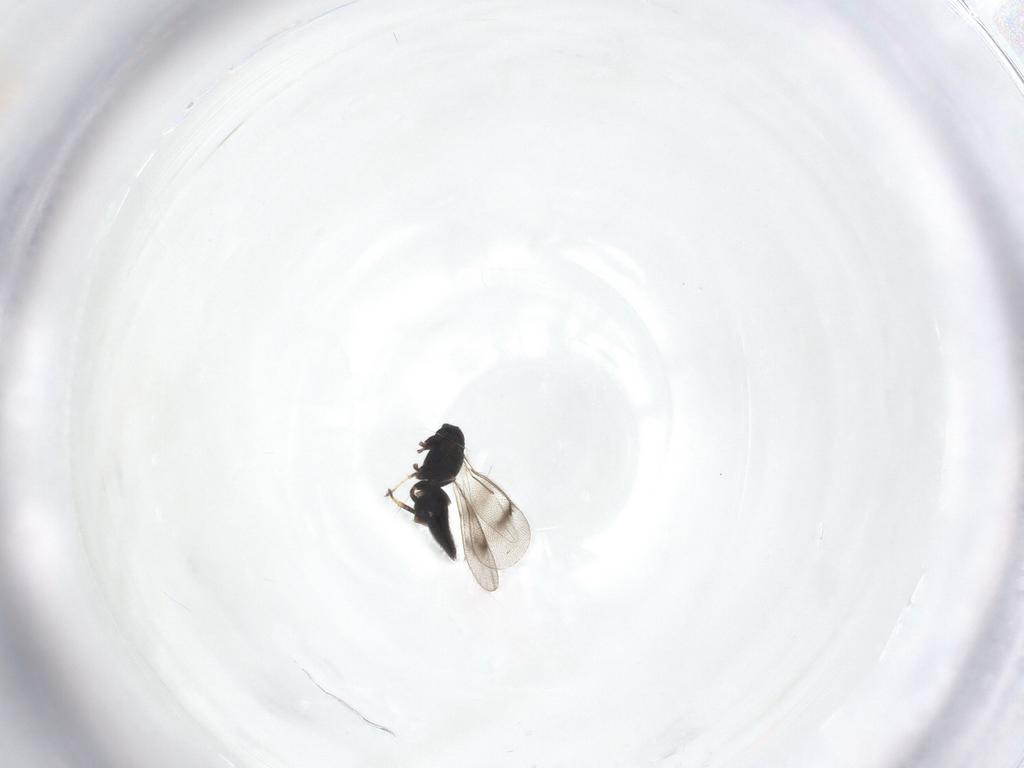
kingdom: Animalia
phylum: Arthropoda
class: Insecta
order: Hymenoptera
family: Eulophidae
